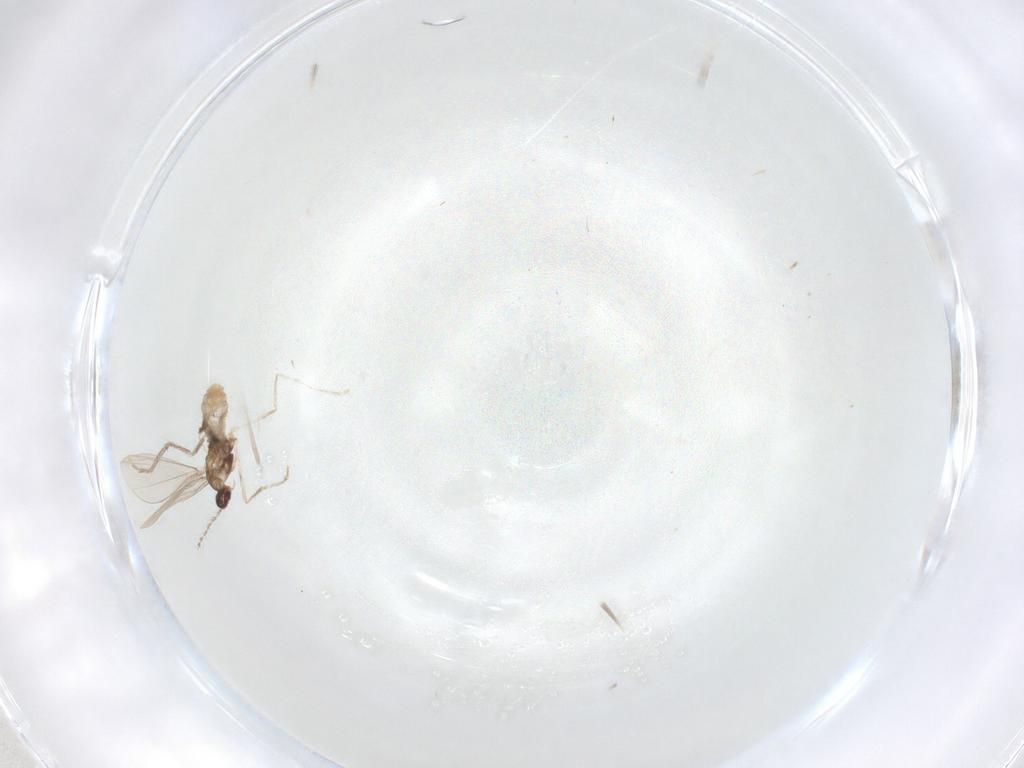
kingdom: Animalia
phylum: Arthropoda
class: Insecta
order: Diptera
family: Cecidomyiidae
